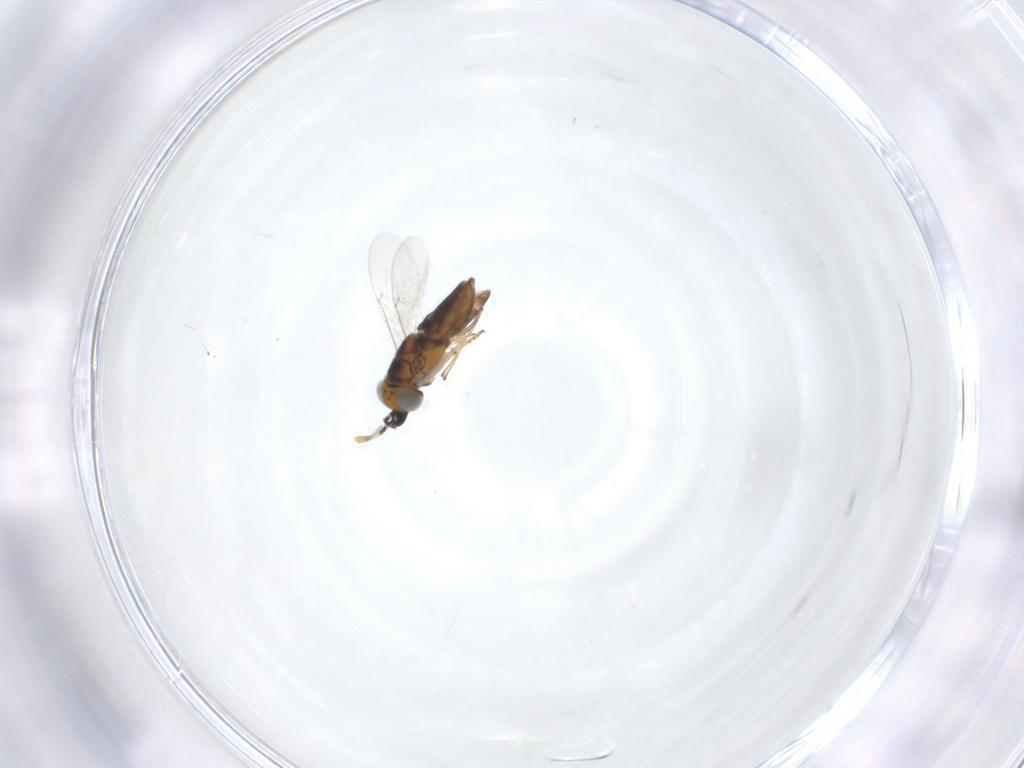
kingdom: Animalia
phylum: Arthropoda
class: Insecta
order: Hymenoptera
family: Encyrtidae
